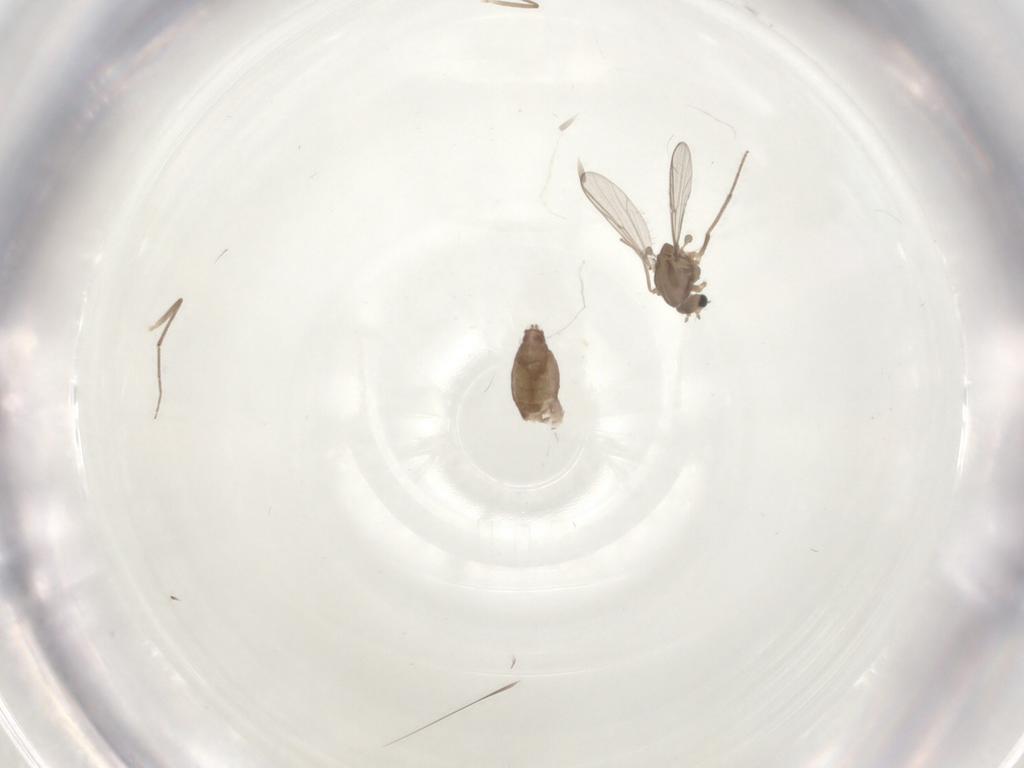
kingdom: Animalia
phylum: Arthropoda
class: Insecta
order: Diptera
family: Chironomidae
